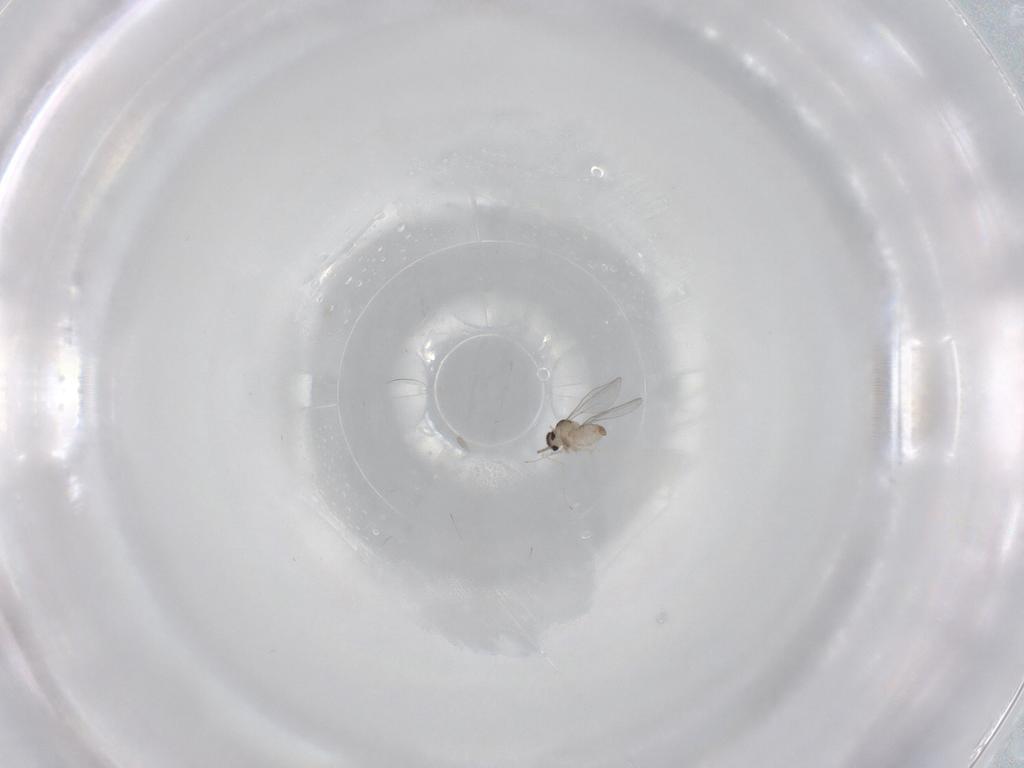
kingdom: Animalia
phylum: Arthropoda
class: Insecta
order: Diptera
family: Cecidomyiidae
